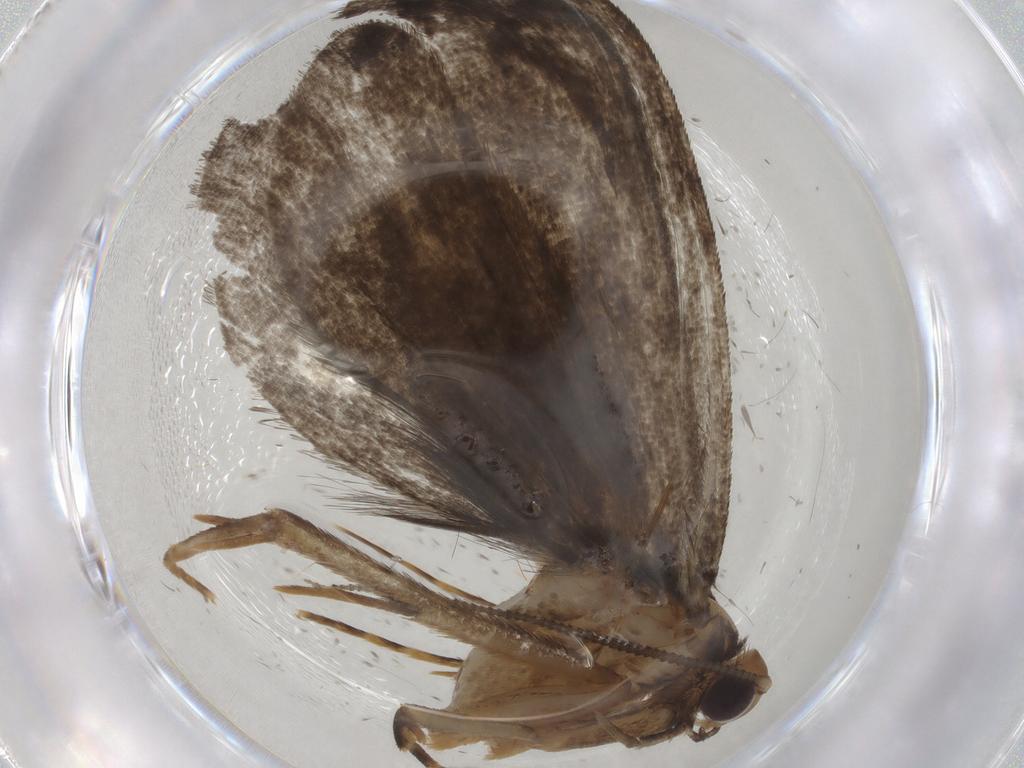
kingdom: Animalia
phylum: Arthropoda
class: Insecta
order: Lepidoptera
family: Tineidae
